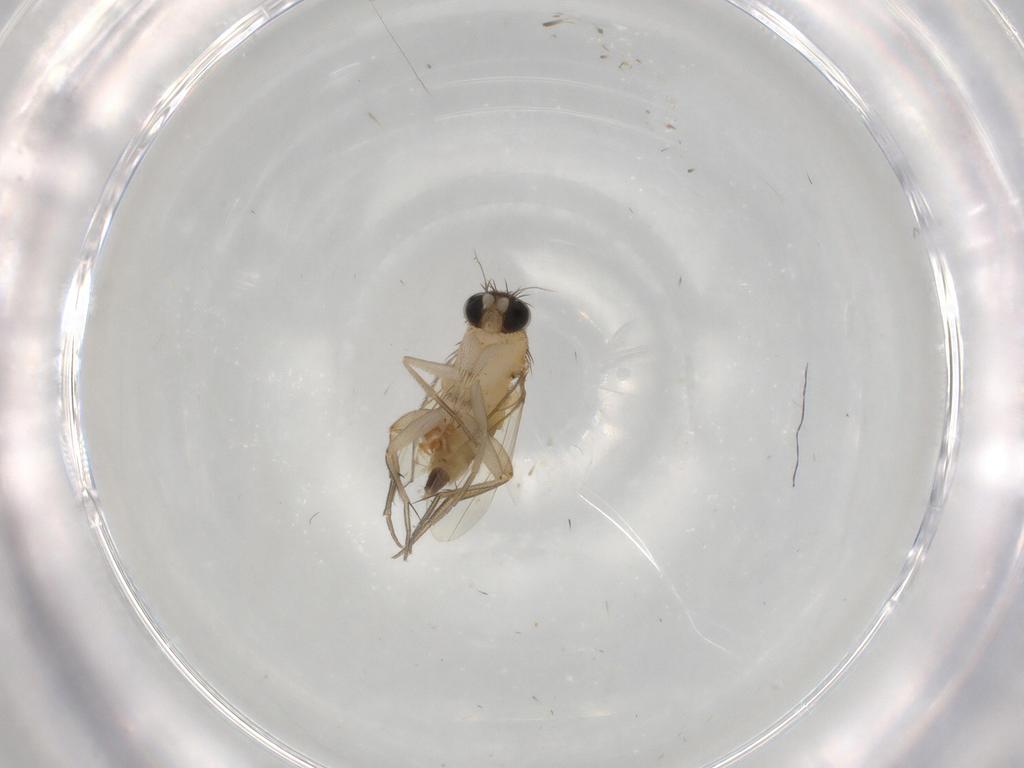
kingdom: Animalia
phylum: Arthropoda
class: Insecta
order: Diptera
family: Phoridae
